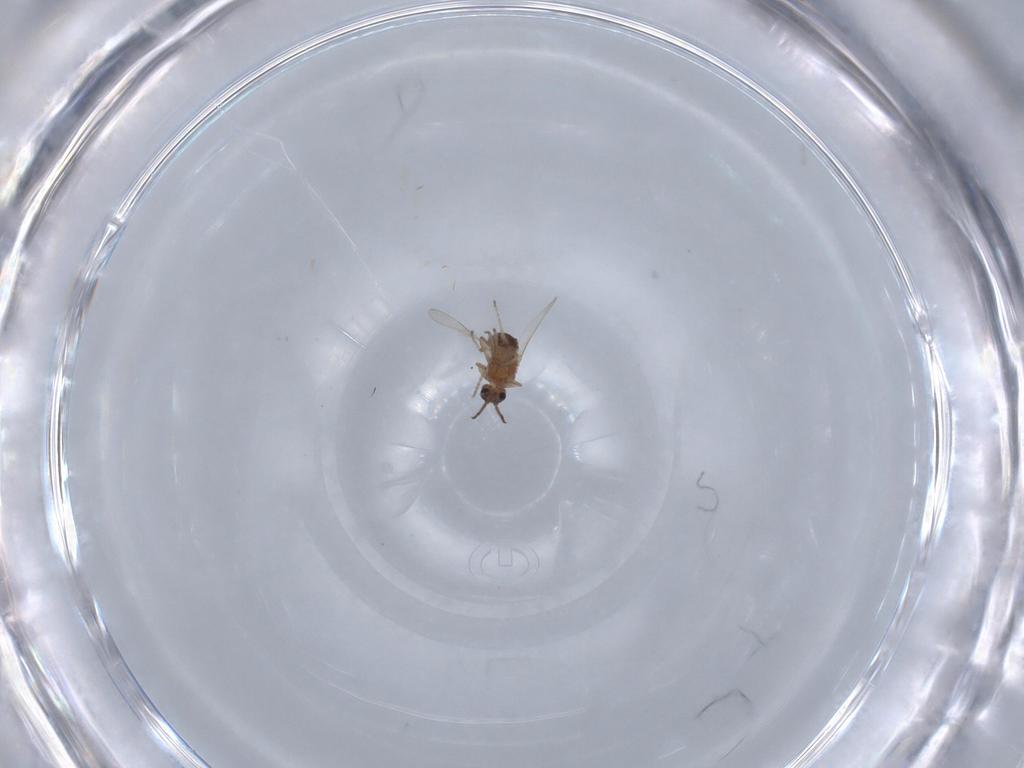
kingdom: Animalia
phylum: Arthropoda
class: Insecta
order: Diptera
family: Ceratopogonidae
